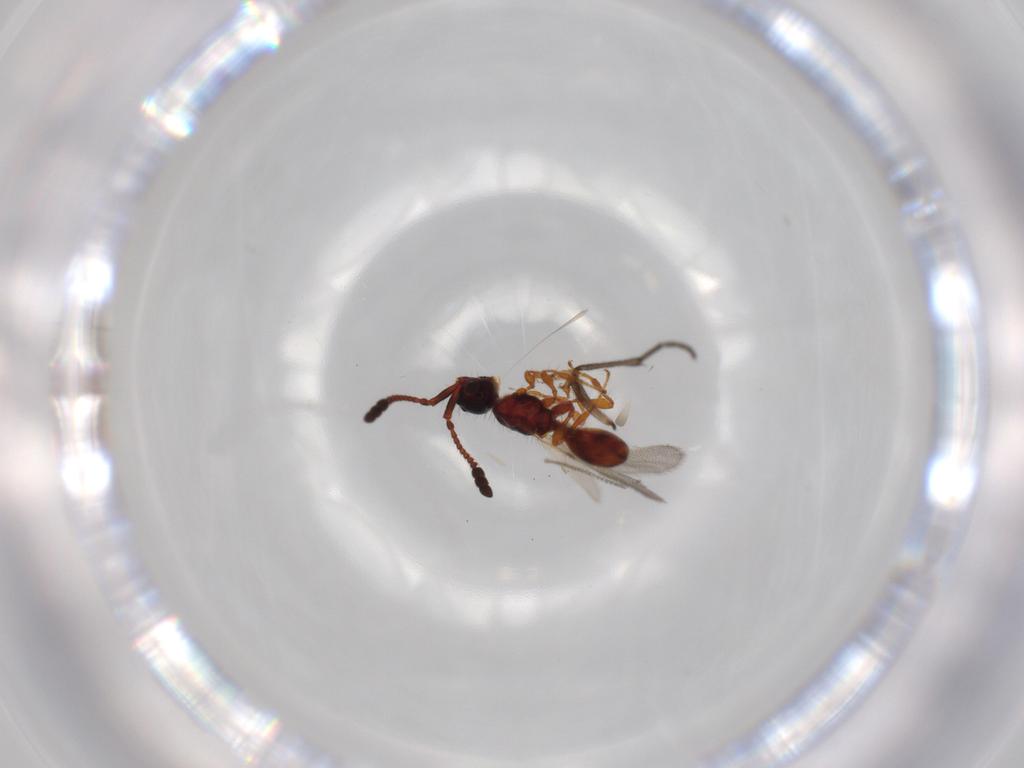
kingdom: Animalia
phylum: Arthropoda
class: Insecta
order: Hymenoptera
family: Diapriidae
